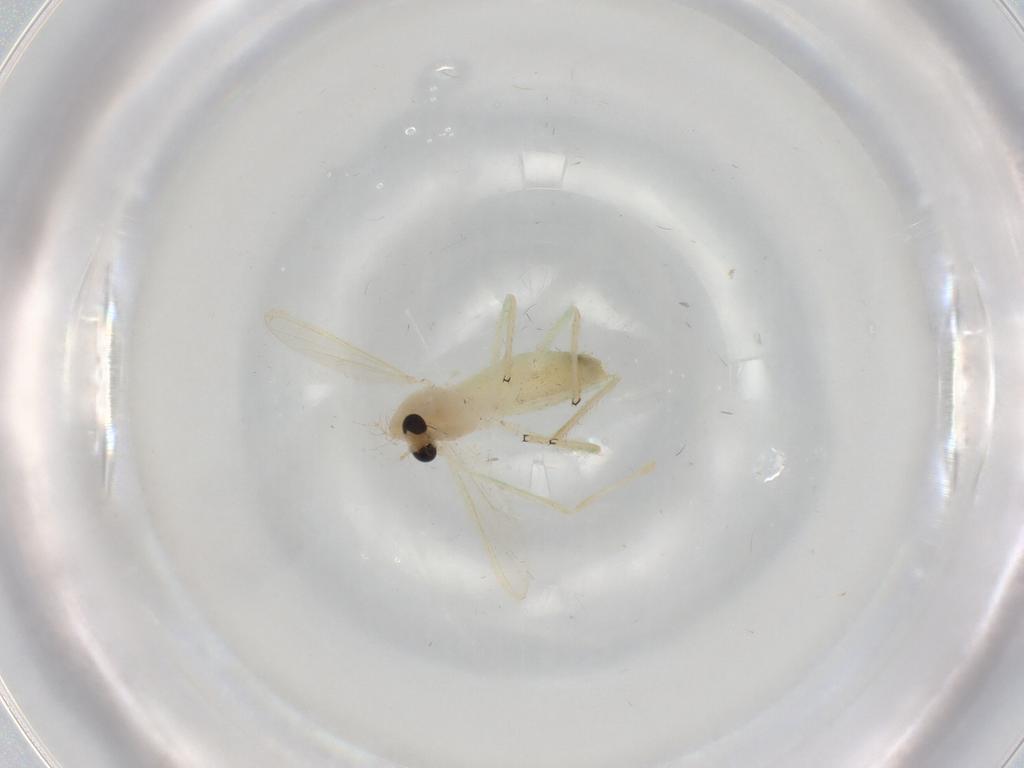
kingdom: Animalia
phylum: Arthropoda
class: Insecta
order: Diptera
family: Chironomidae
